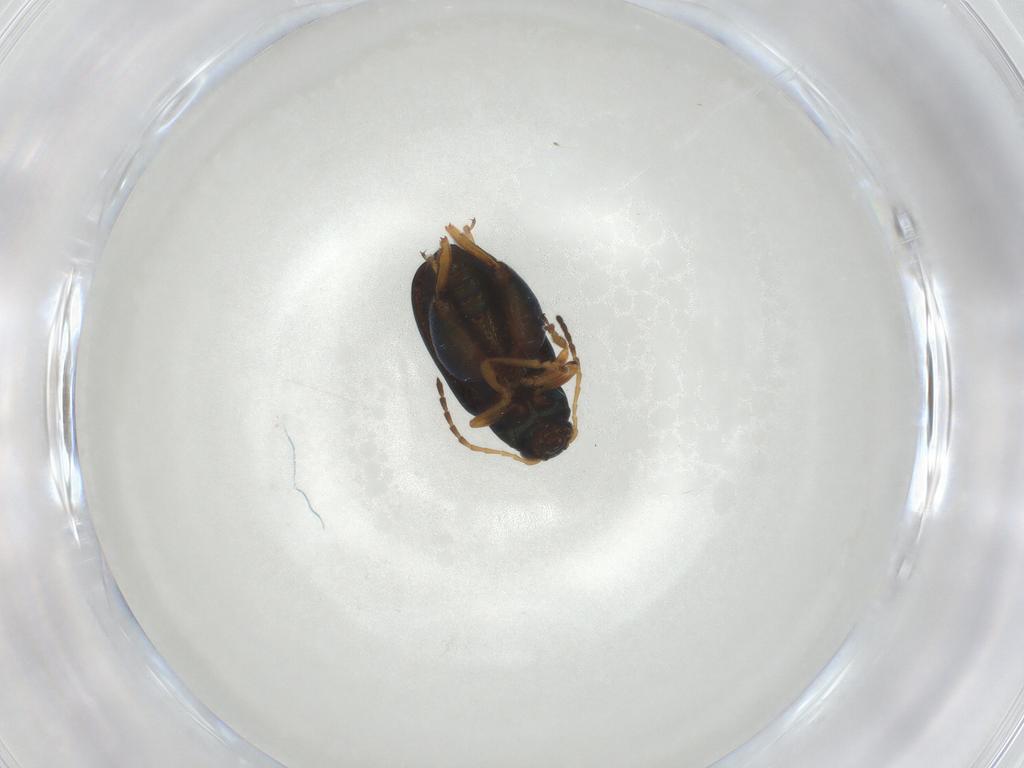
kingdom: Animalia
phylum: Arthropoda
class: Insecta
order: Coleoptera
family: Chrysomelidae
